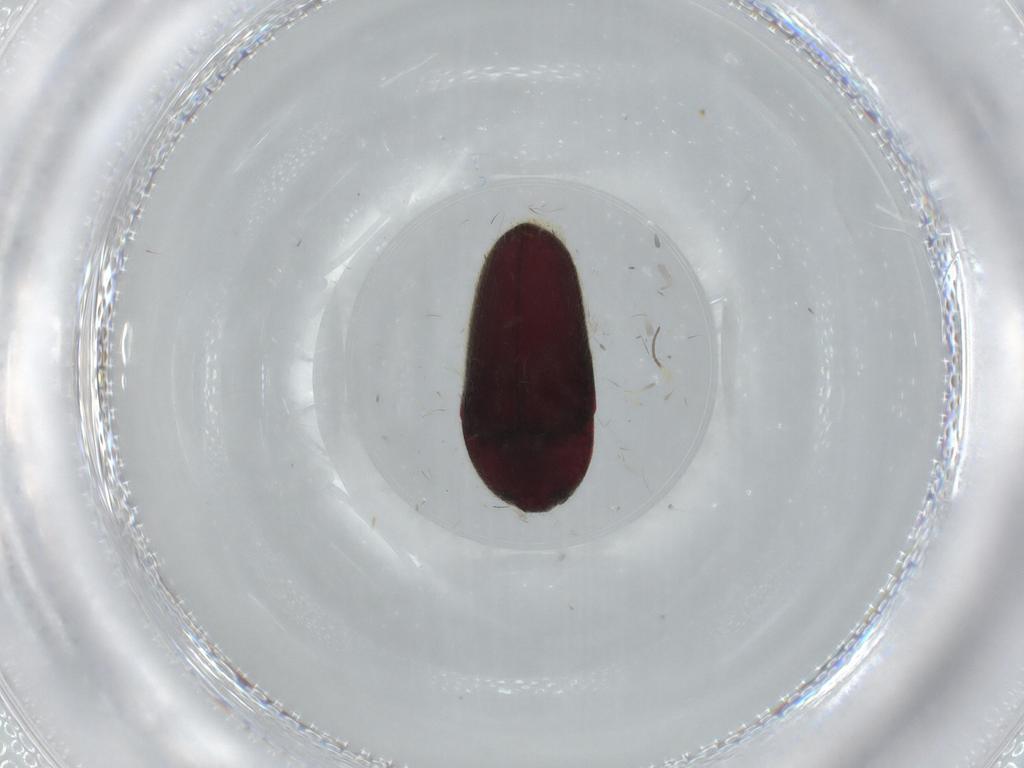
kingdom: Animalia
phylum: Arthropoda
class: Insecta
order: Coleoptera
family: Throscidae
